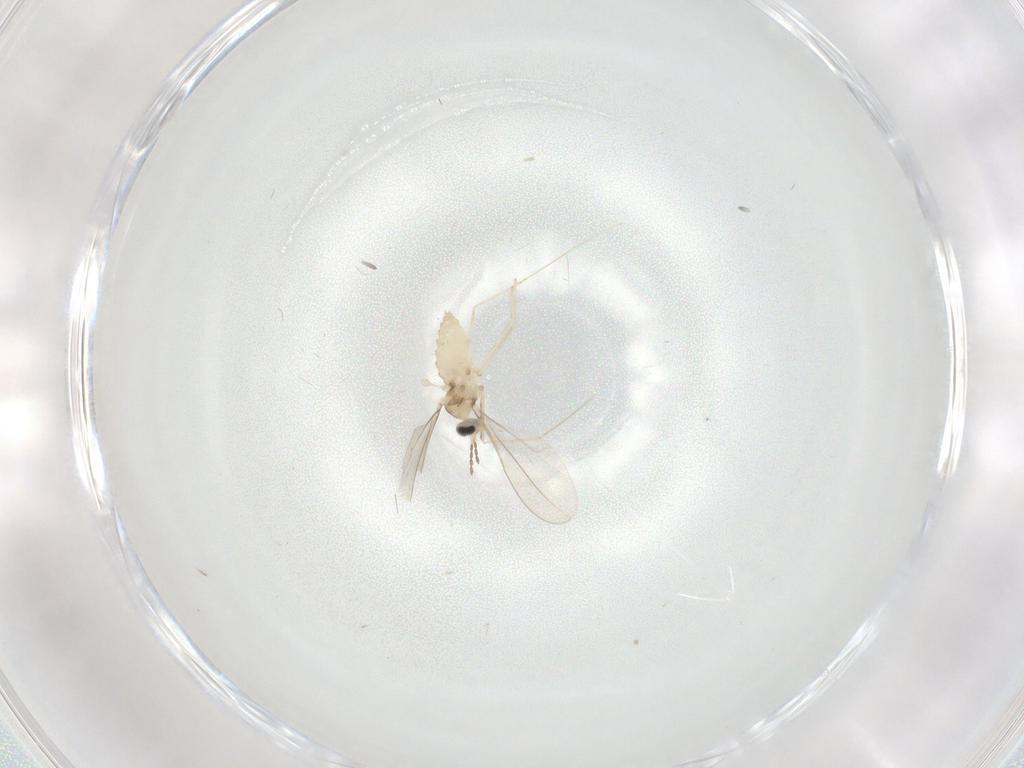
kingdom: Animalia
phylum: Arthropoda
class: Insecta
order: Diptera
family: Cecidomyiidae
